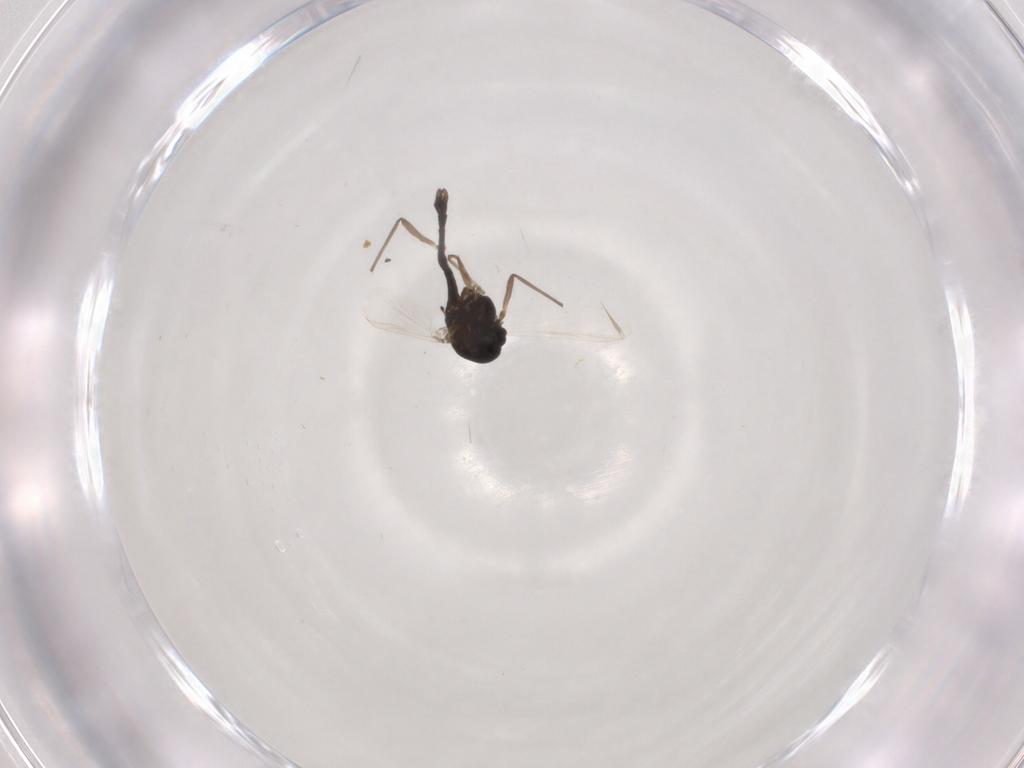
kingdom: Animalia
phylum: Arthropoda
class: Insecta
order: Diptera
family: Chironomidae
